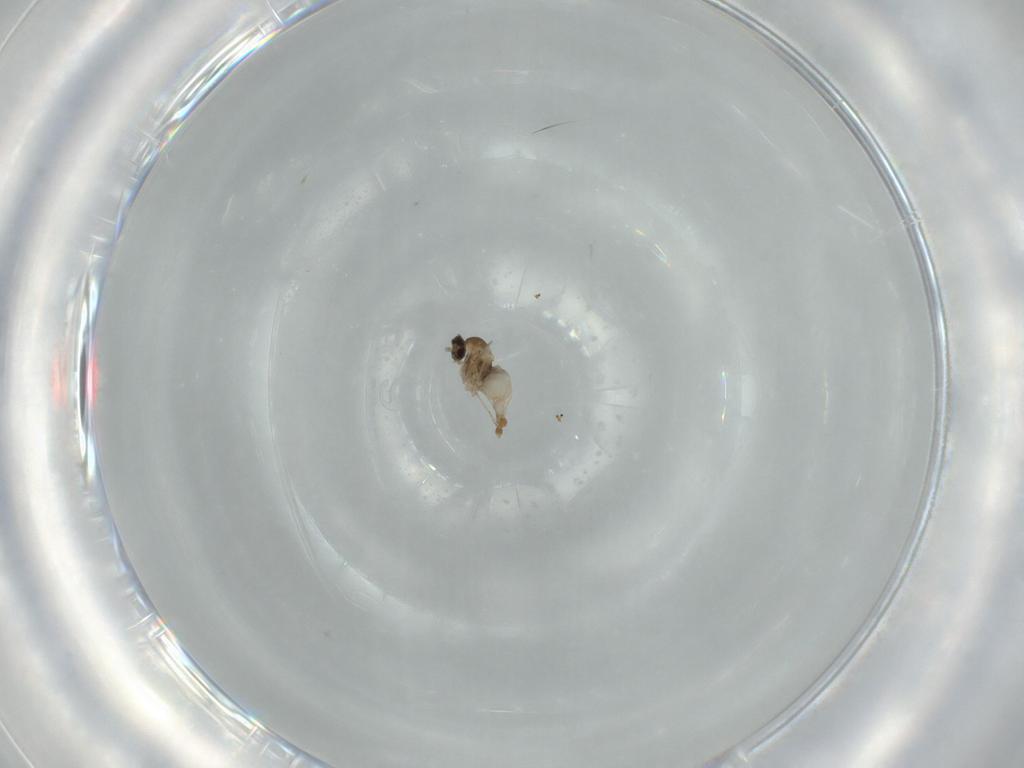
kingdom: Animalia
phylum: Arthropoda
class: Insecta
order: Diptera
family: Cecidomyiidae
